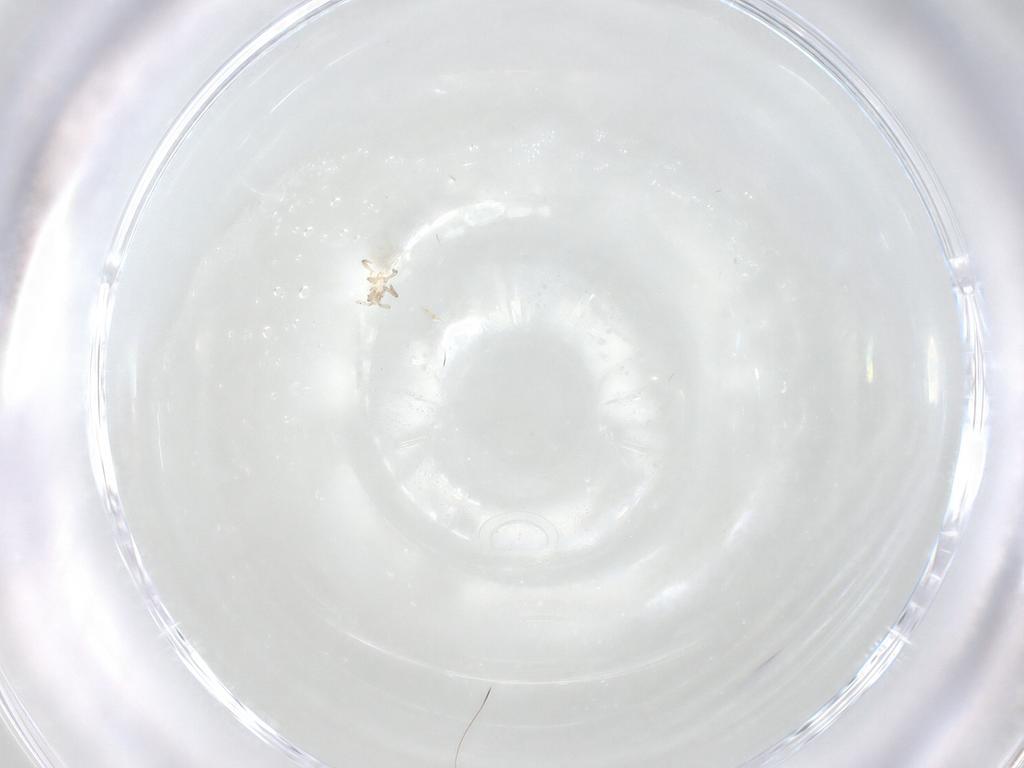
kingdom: Animalia
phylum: Arthropoda
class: Insecta
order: Hemiptera
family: Aphididae
